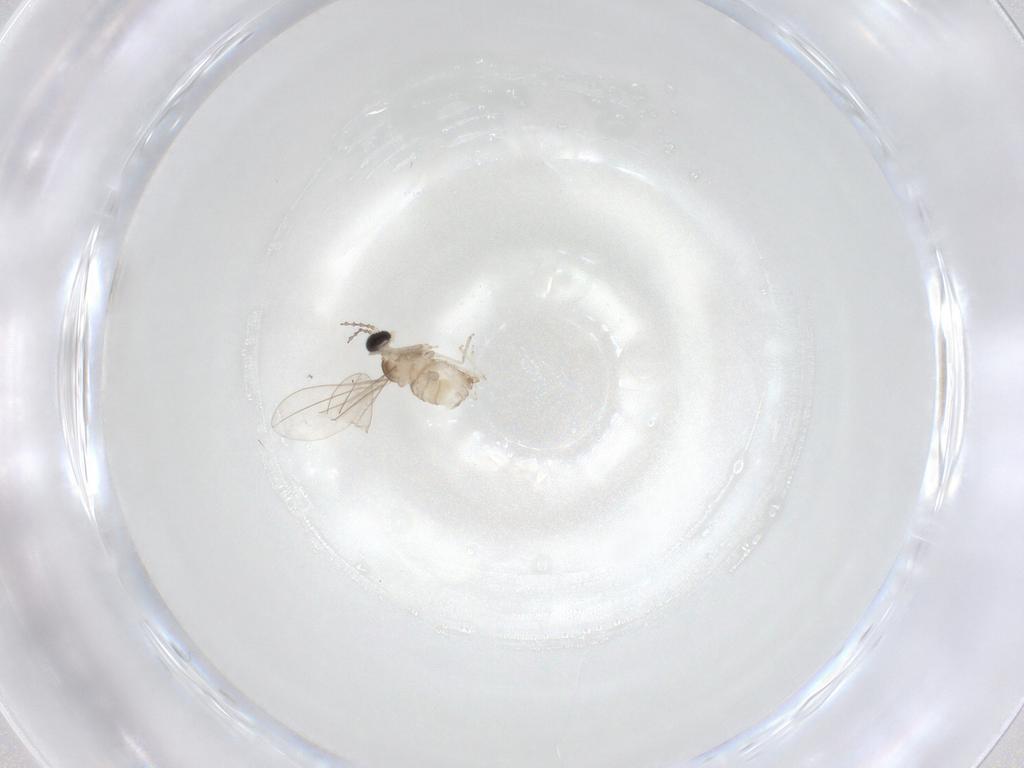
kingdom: Animalia
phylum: Arthropoda
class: Insecta
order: Diptera
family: Cecidomyiidae
